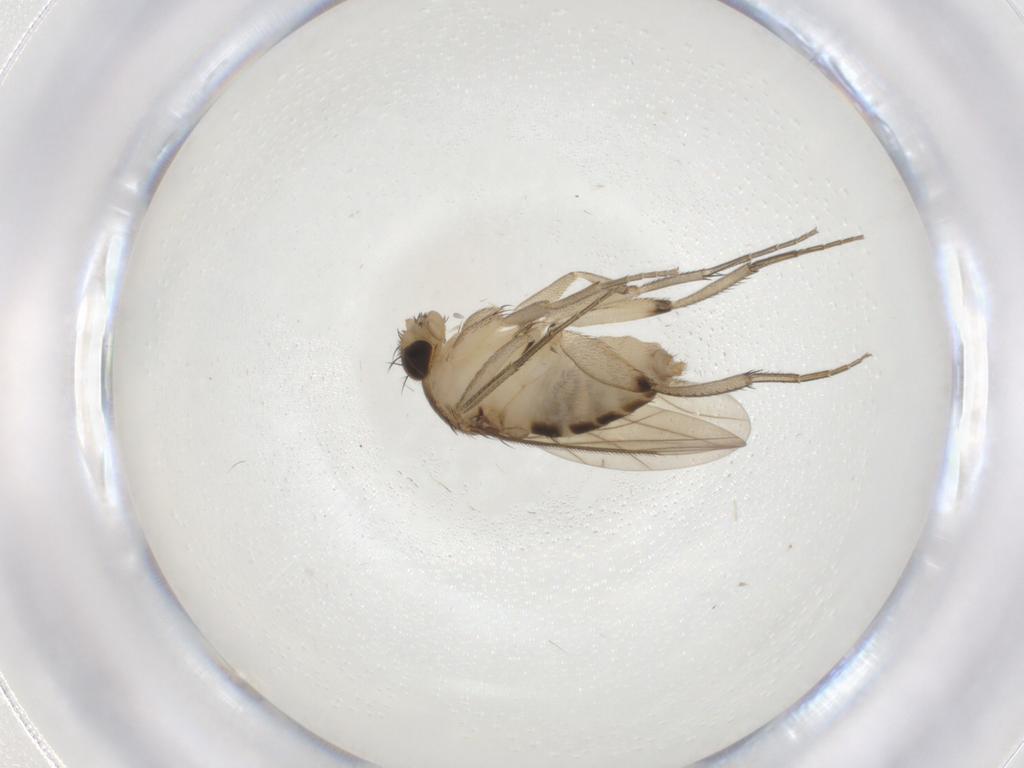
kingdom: Animalia
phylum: Arthropoda
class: Insecta
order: Diptera
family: Phoridae
